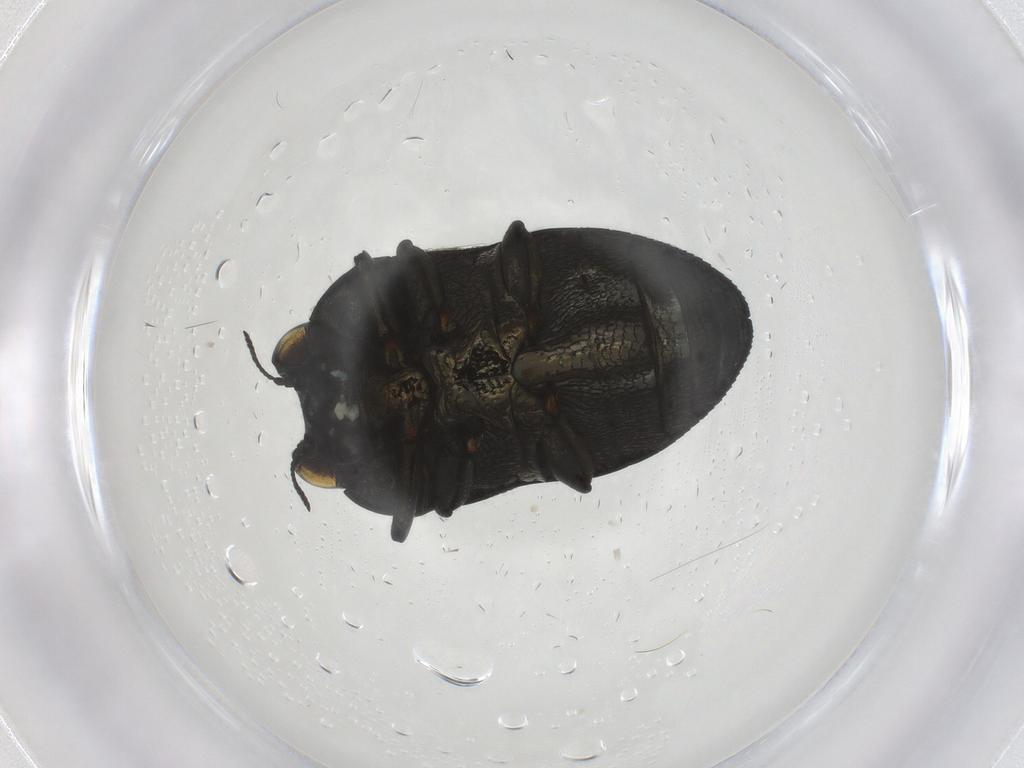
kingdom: Animalia
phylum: Arthropoda
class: Insecta
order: Coleoptera
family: Buprestidae
